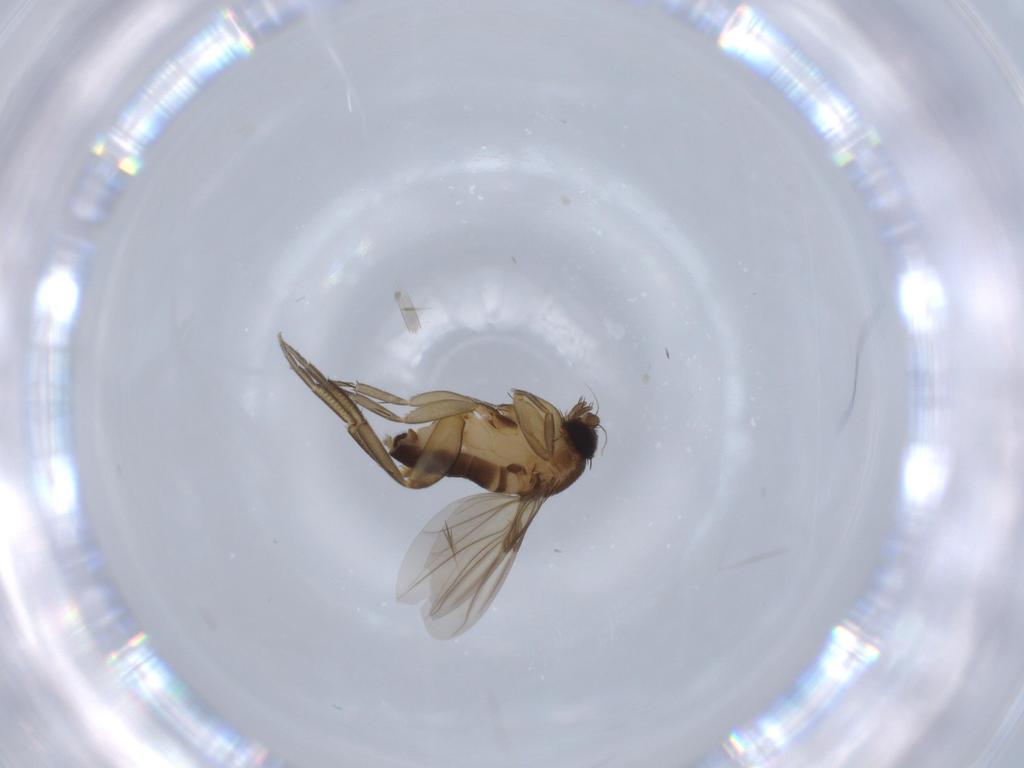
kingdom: Animalia
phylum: Arthropoda
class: Insecta
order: Diptera
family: Phoridae
